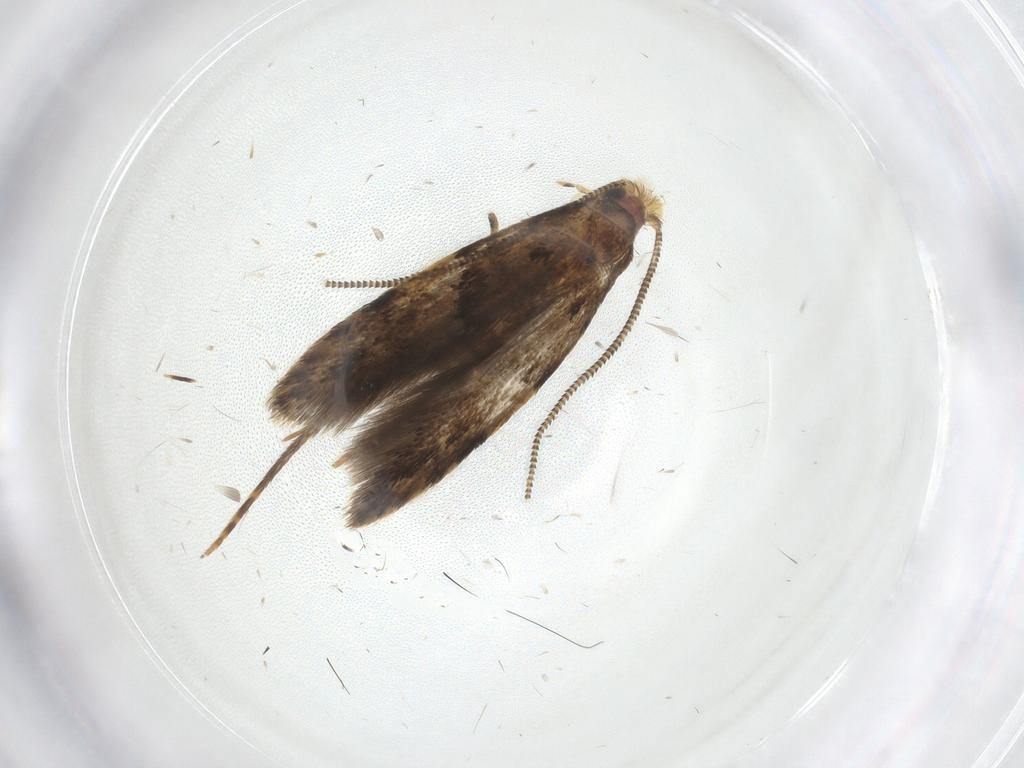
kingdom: Animalia
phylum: Arthropoda
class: Insecta
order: Lepidoptera
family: Tineidae
